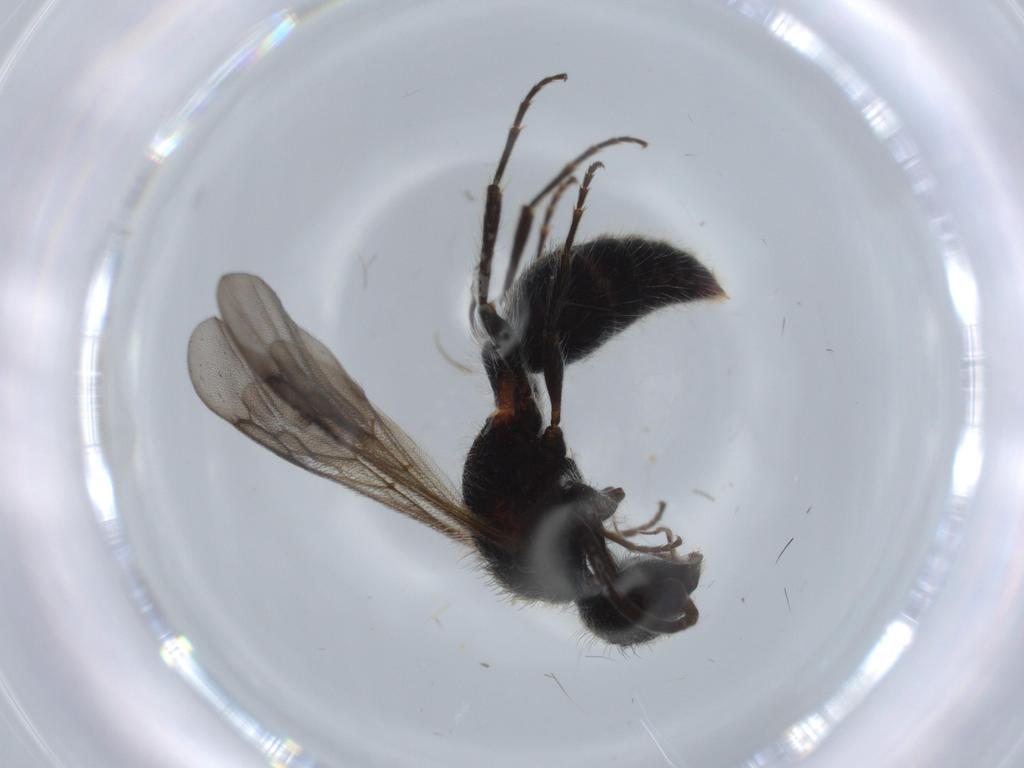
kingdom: Animalia
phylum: Arthropoda
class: Insecta
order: Hymenoptera
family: Mutillidae
